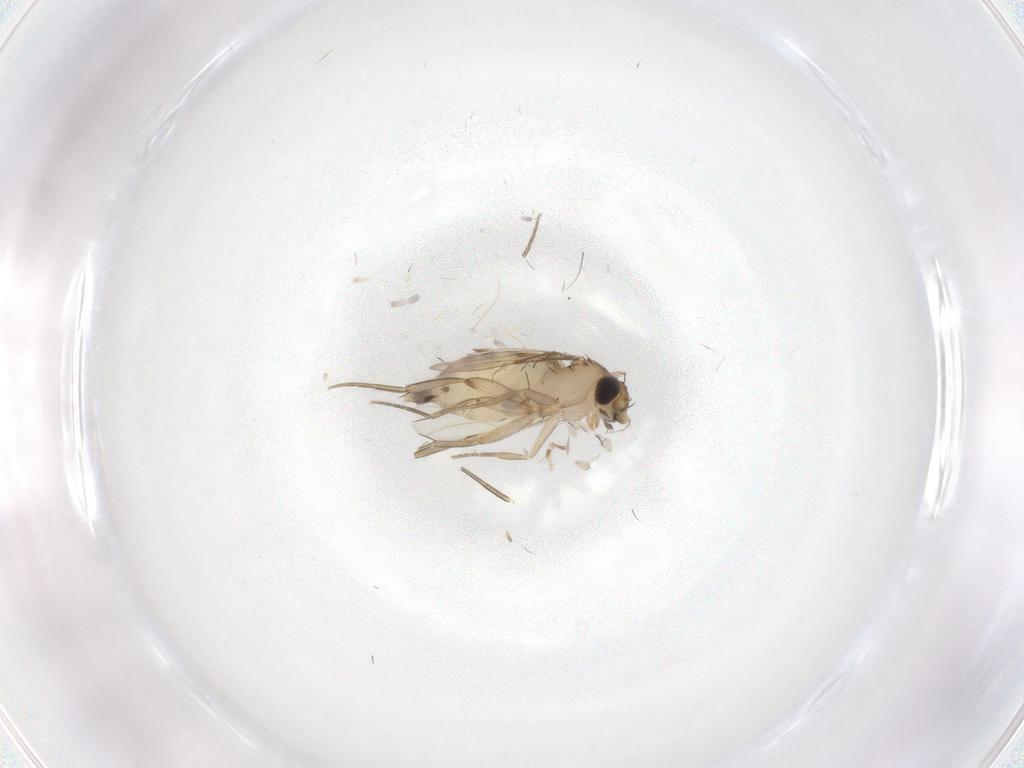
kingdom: Animalia
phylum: Arthropoda
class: Insecta
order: Diptera
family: Phoridae
